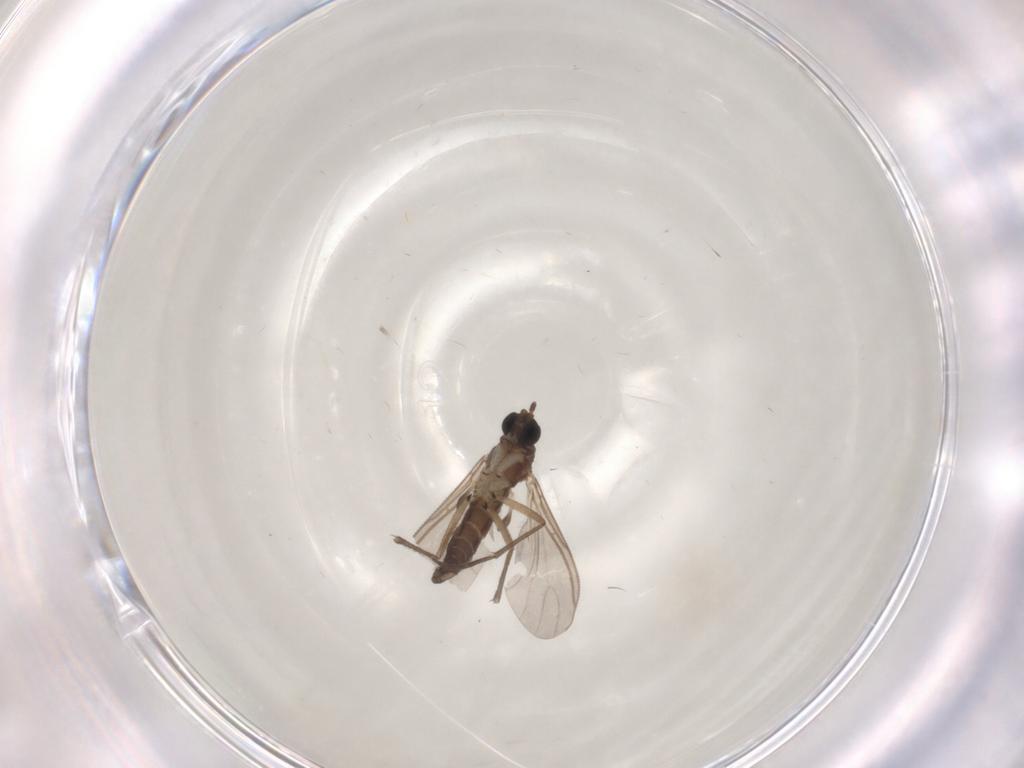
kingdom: Animalia
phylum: Arthropoda
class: Insecta
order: Diptera
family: Sciaridae
